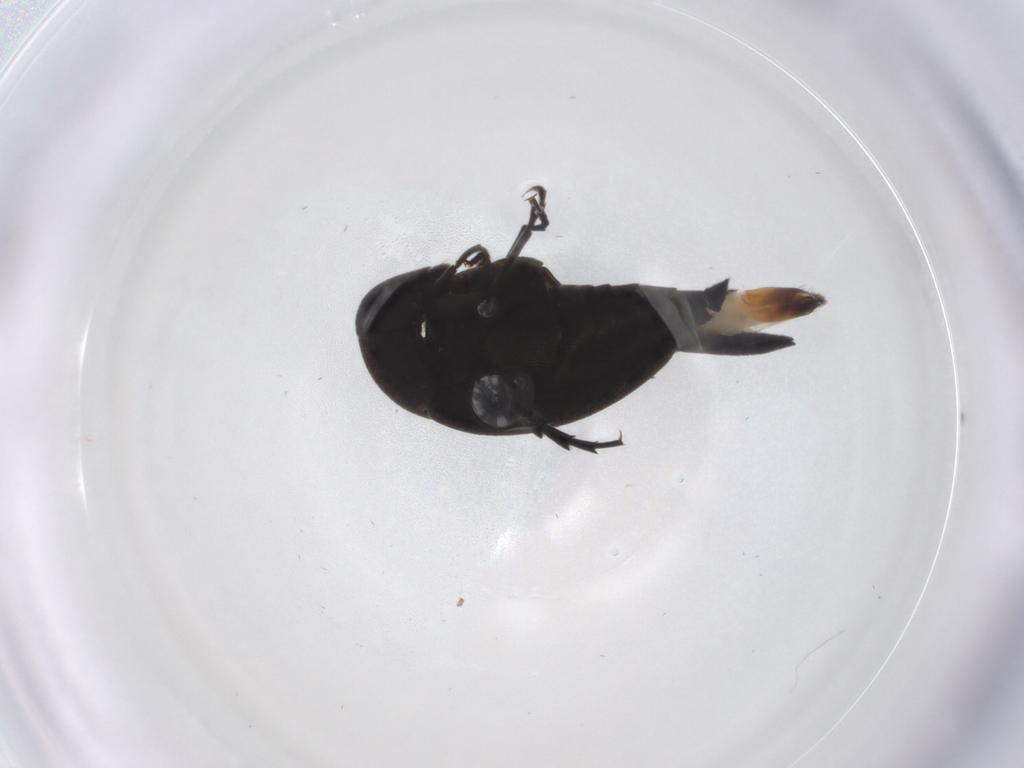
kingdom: Animalia
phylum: Arthropoda
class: Insecta
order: Coleoptera
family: Mordellidae
